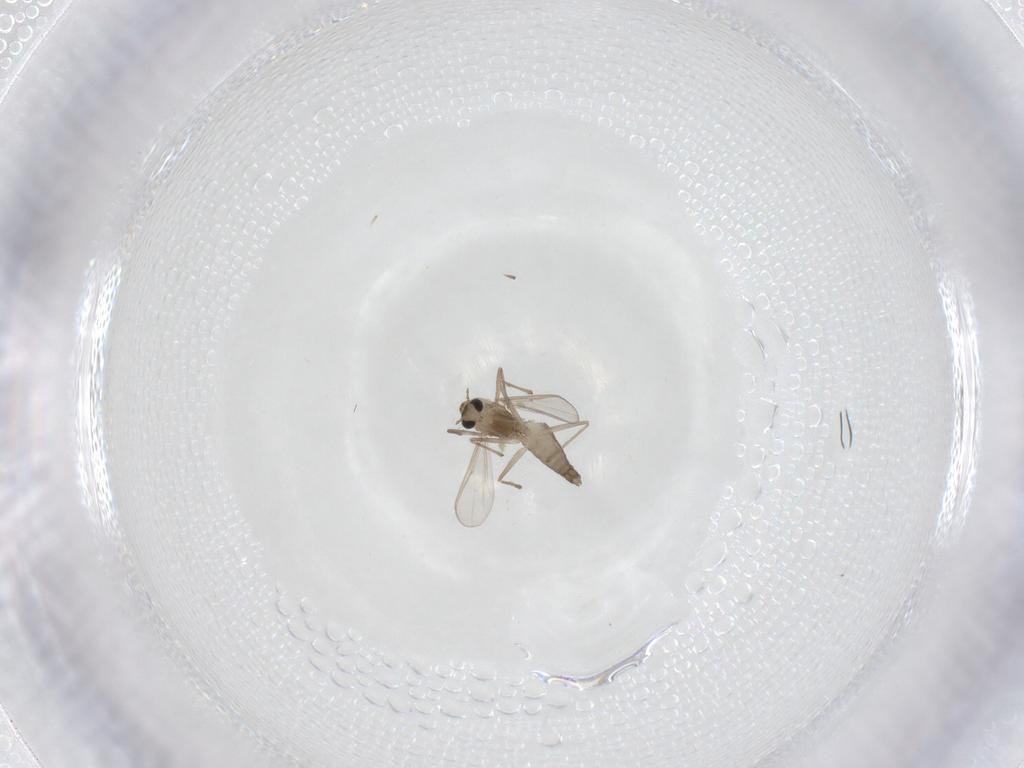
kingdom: Animalia
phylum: Arthropoda
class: Insecta
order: Diptera
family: Chironomidae
